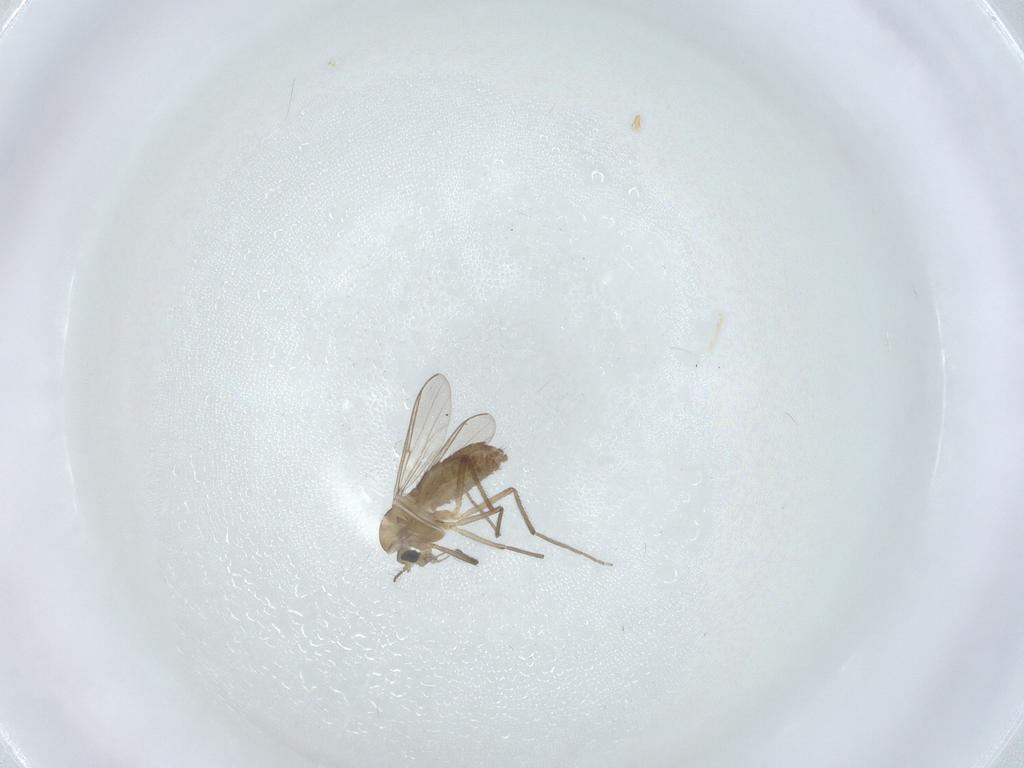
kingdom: Animalia
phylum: Arthropoda
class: Insecta
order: Diptera
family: Chironomidae
